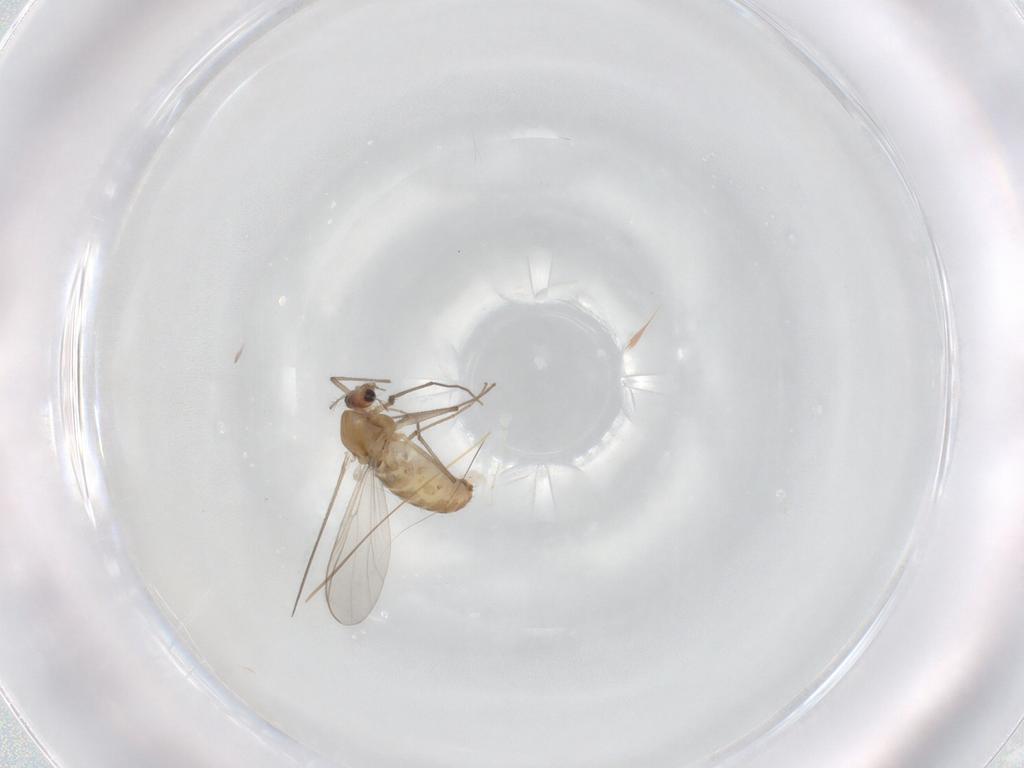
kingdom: Animalia
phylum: Arthropoda
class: Insecta
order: Diptera
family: Chironomidae
